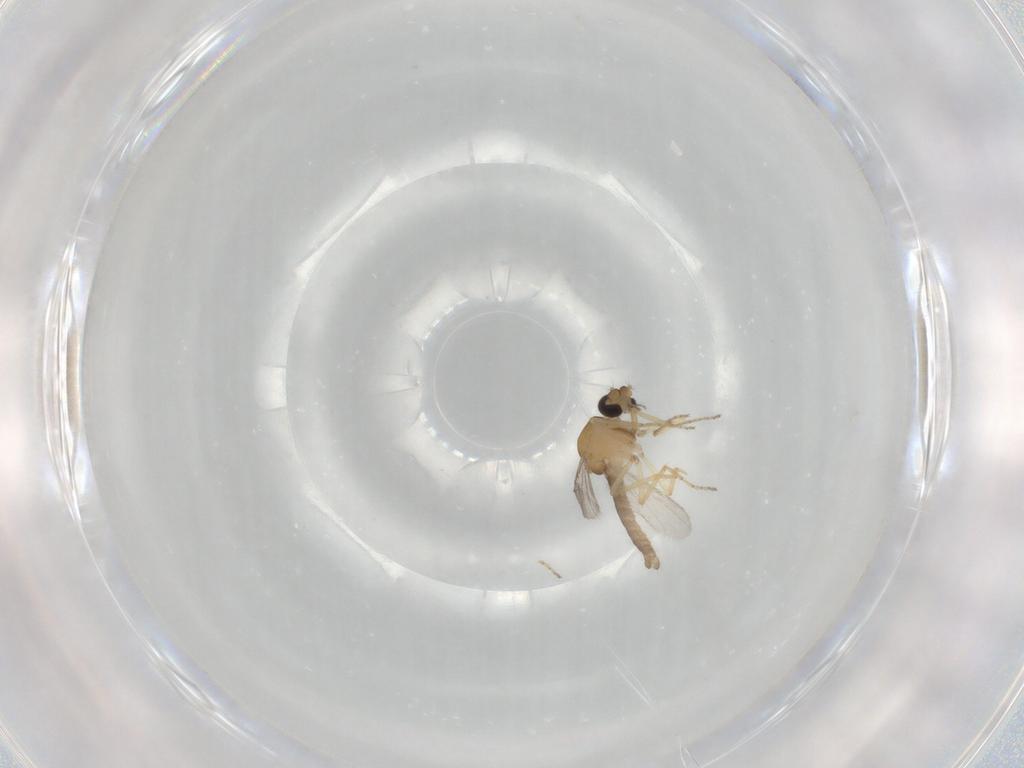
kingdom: Animalia
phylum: Arthropoda
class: Insecta
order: Diptera
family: Ceratopogonidae
